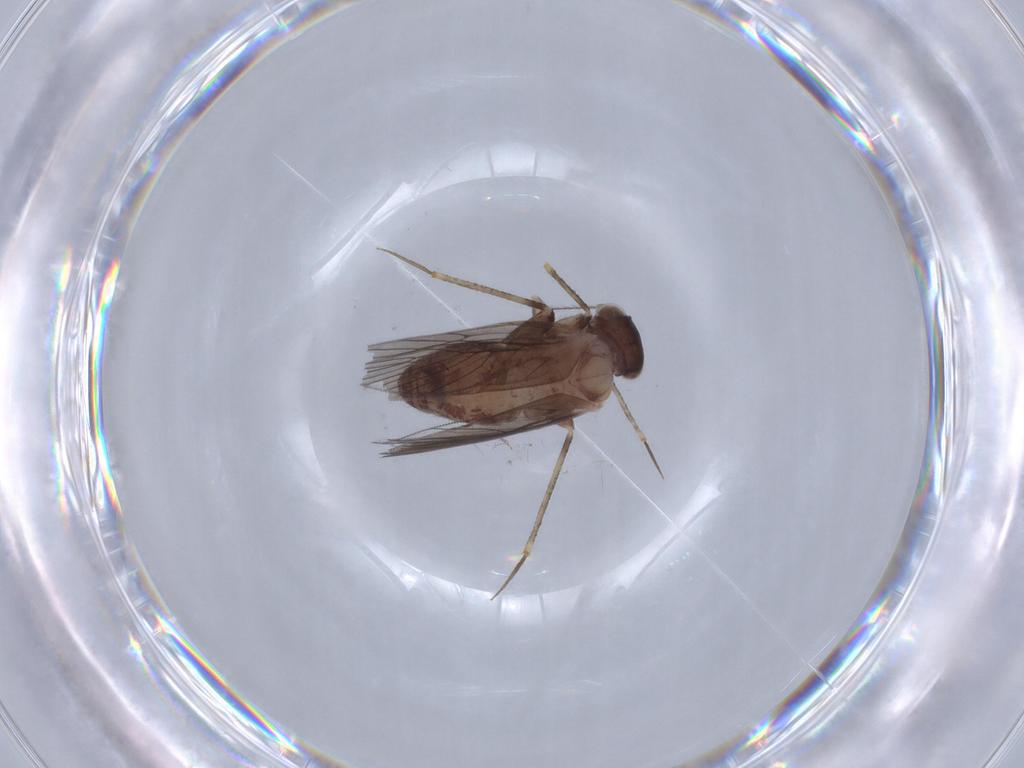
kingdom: Animalia
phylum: Arthropoda
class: Insecta
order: Psocodea
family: Lepidopsocidae
